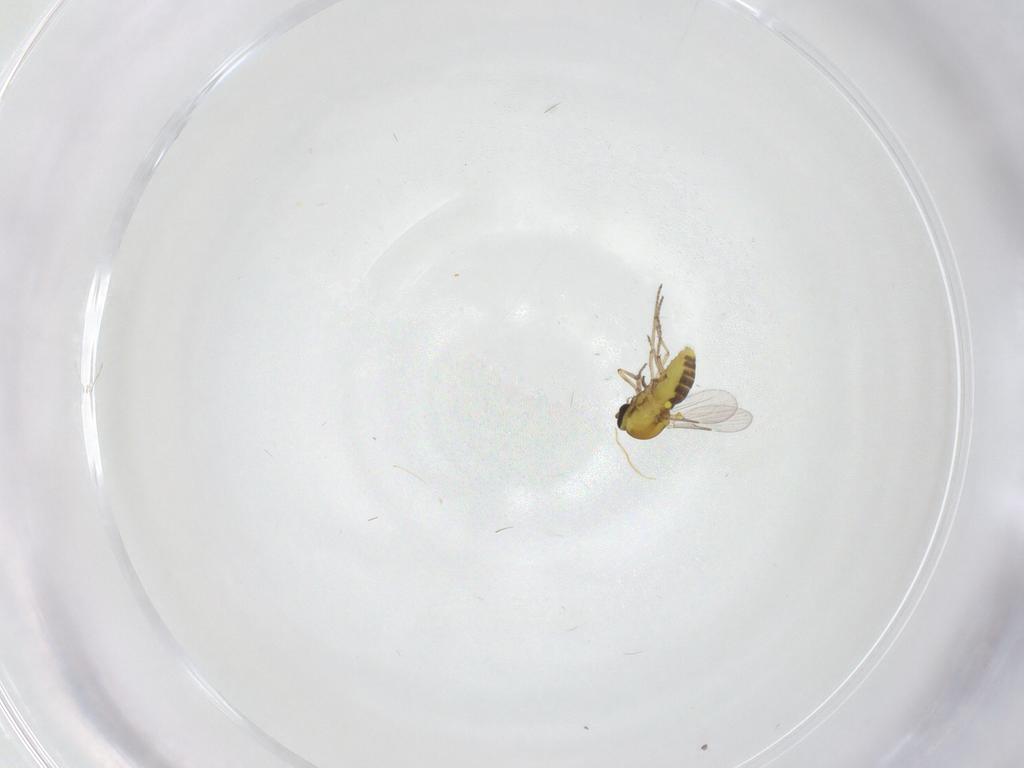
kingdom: Animalia
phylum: Arthropoda
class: Insecta
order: Diptera
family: Ceratopogonidae
